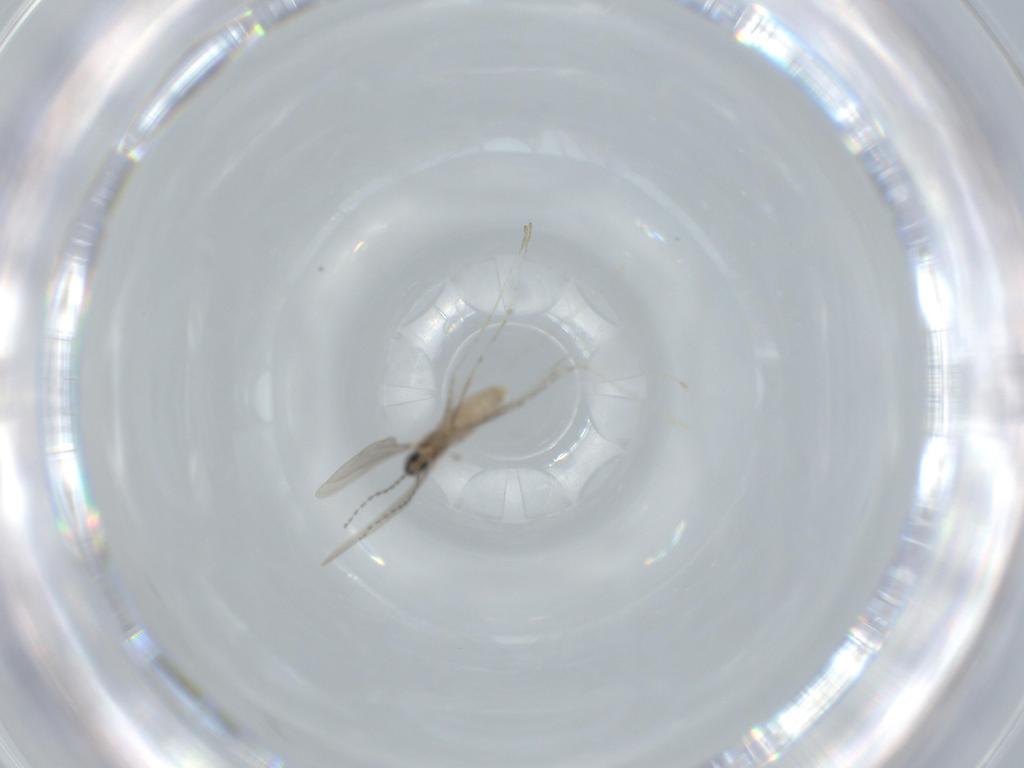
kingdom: Animalia
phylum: Arthropoda
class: Insecta
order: Diptera
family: Cecidomyiidae
